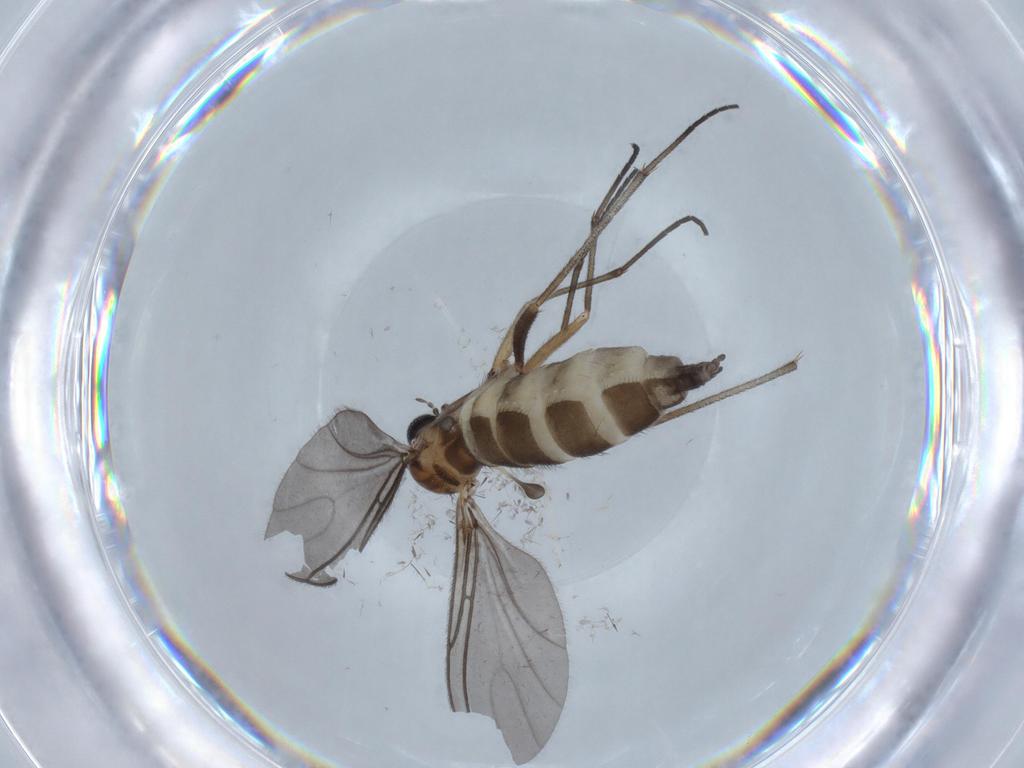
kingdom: Animalia
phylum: Arthropoda
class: Insecta
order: Diptera
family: Sciaridae
